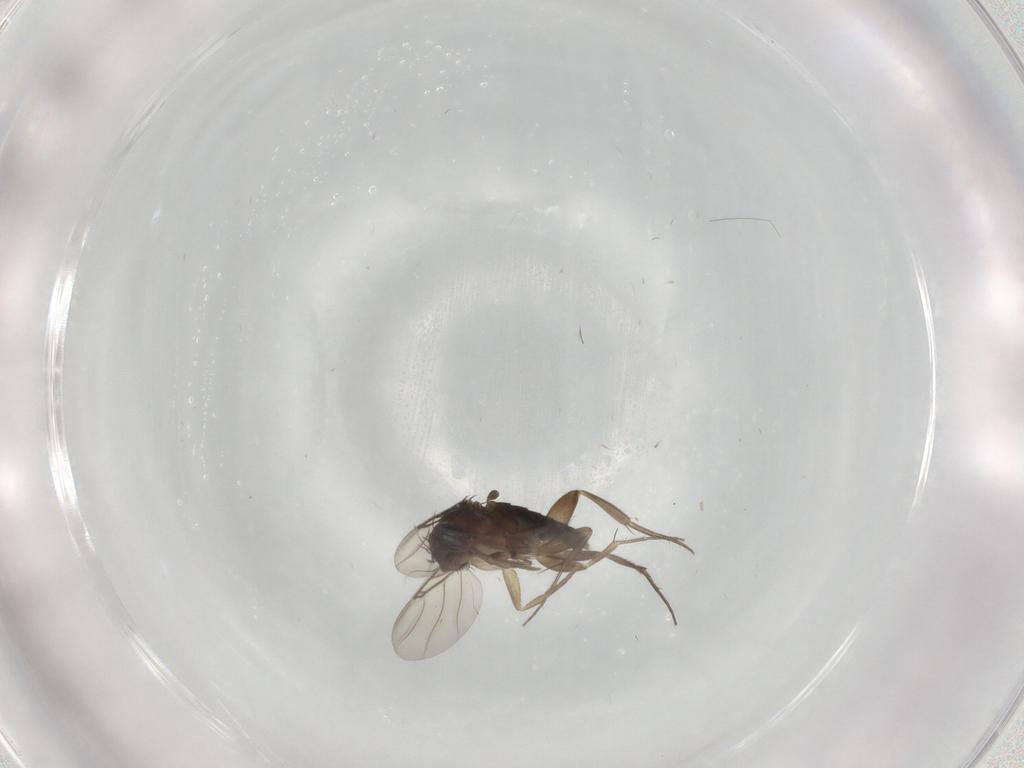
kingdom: Animalia
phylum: Arthropoda
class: Insecta
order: Diptera
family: Phoridae
